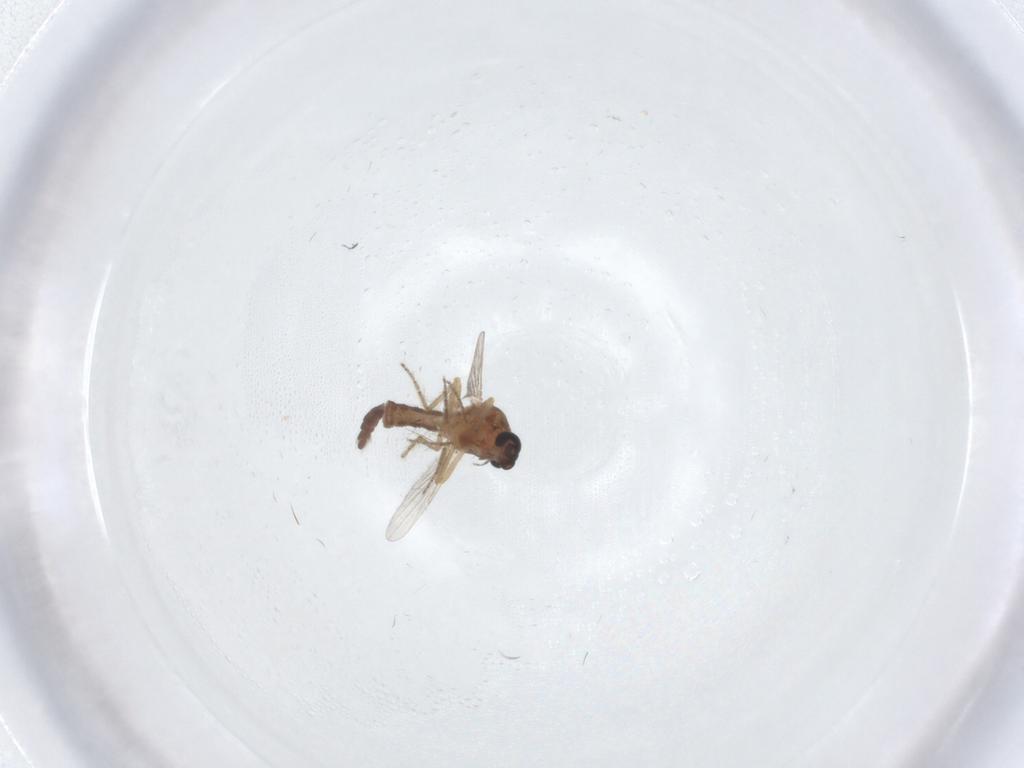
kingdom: Animalia
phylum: Arthropoda
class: Insecta
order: Diptera
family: Ceratopogonidae
